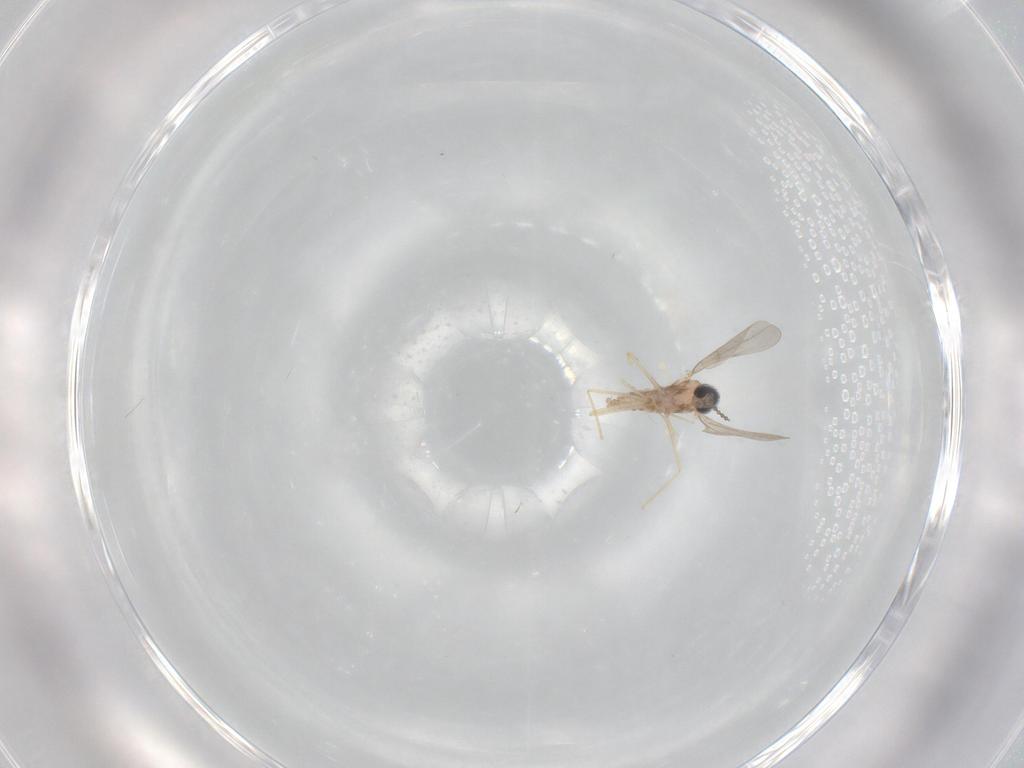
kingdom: Animalia
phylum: Arthropoda
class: Insecta
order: Diptera
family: Cecidomyiidae
